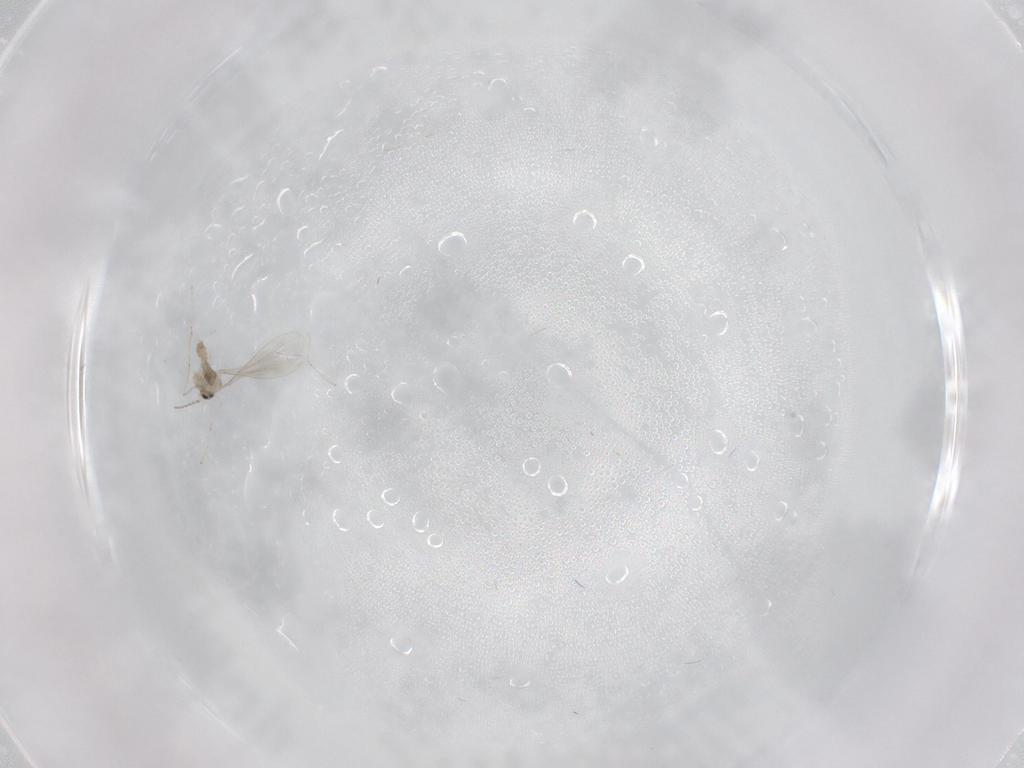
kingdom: Animalia
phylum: Arthropoda
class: Insecta
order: Diptera
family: Cecidomyiidae
